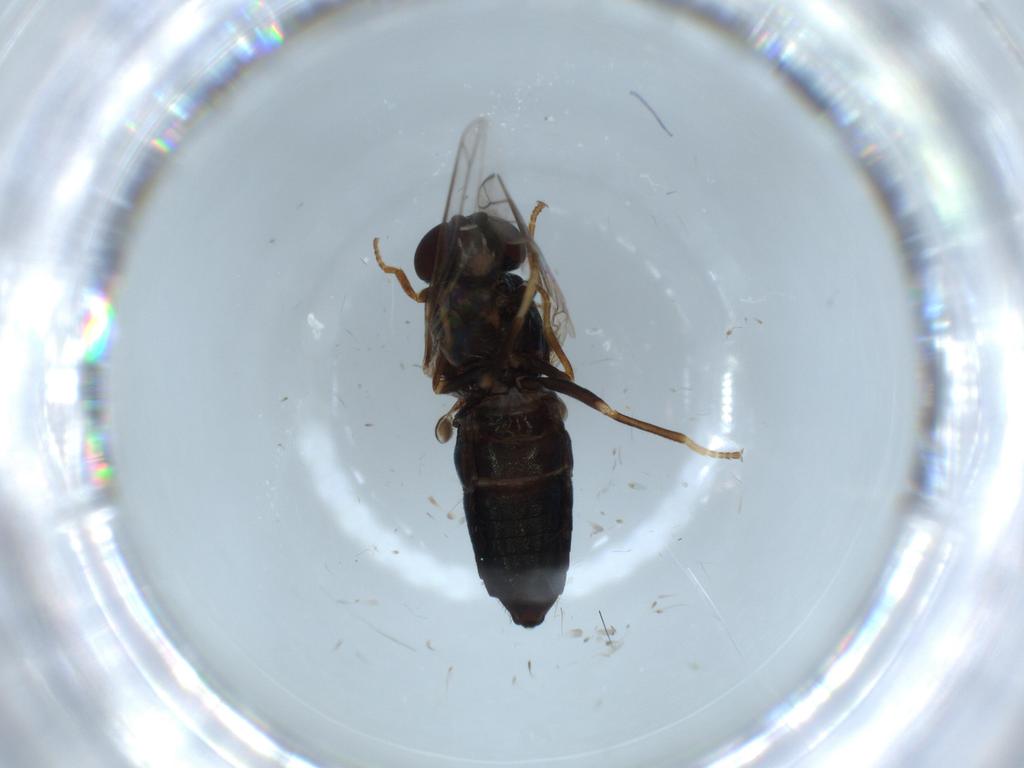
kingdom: Animalia
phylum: Arthropoda
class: Insecta
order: Diptera
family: Scenopinidae
